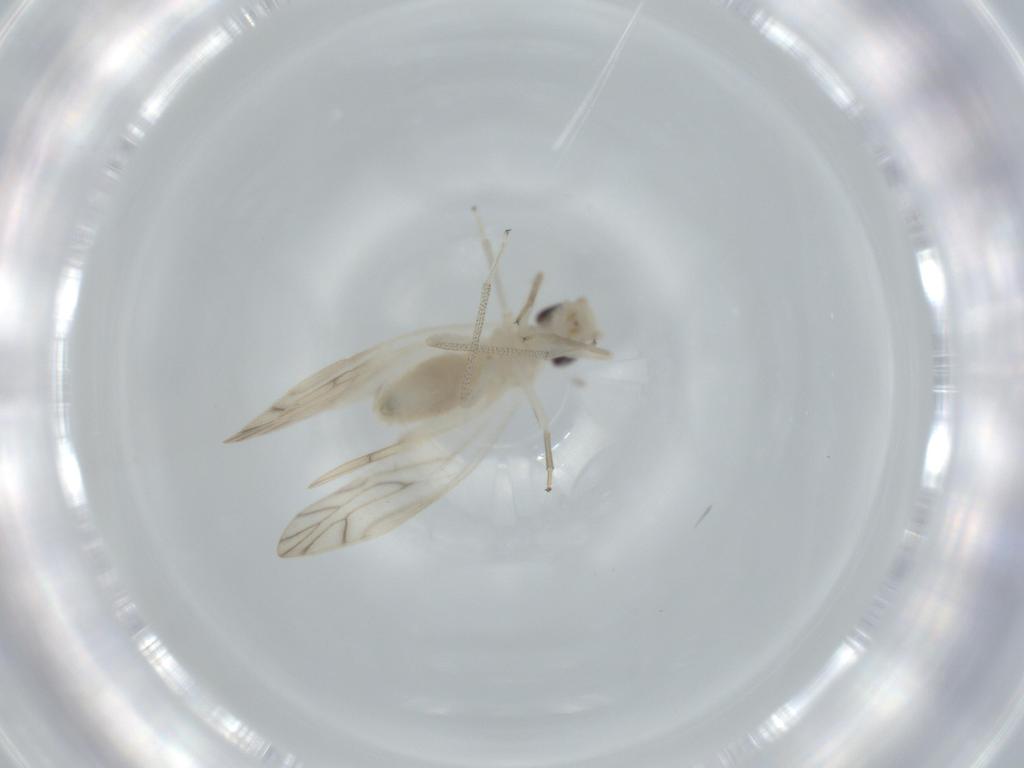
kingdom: Animalia
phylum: Arthropoda
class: Insecta
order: Psocodea
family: Caeciliusidae
